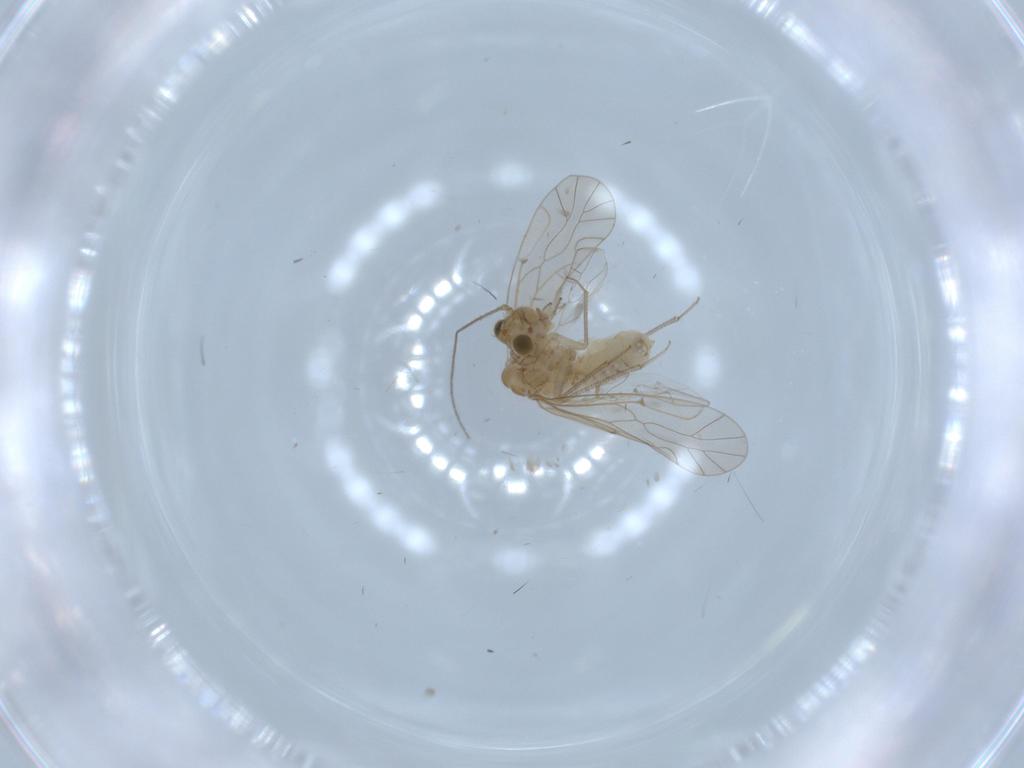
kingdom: Animalia
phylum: Arthropoda
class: Insecta
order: Psocodea
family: Lachesillidae
